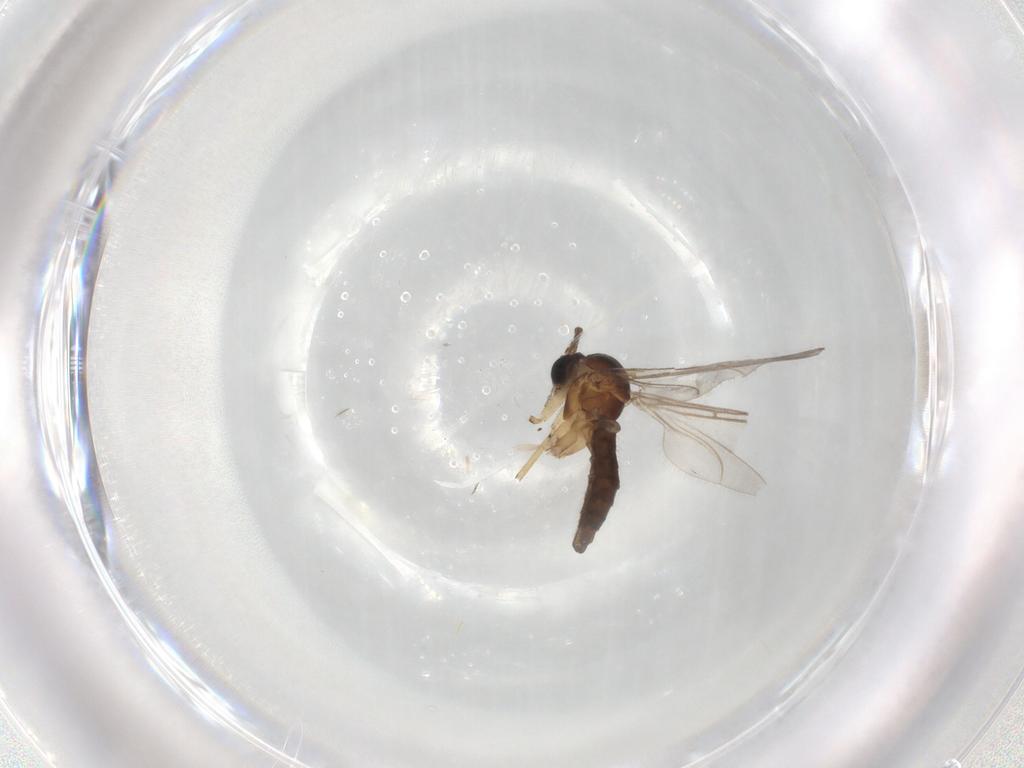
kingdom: Animalia
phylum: Arthropoda
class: Insecta
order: Diptera
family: Sciaridae
